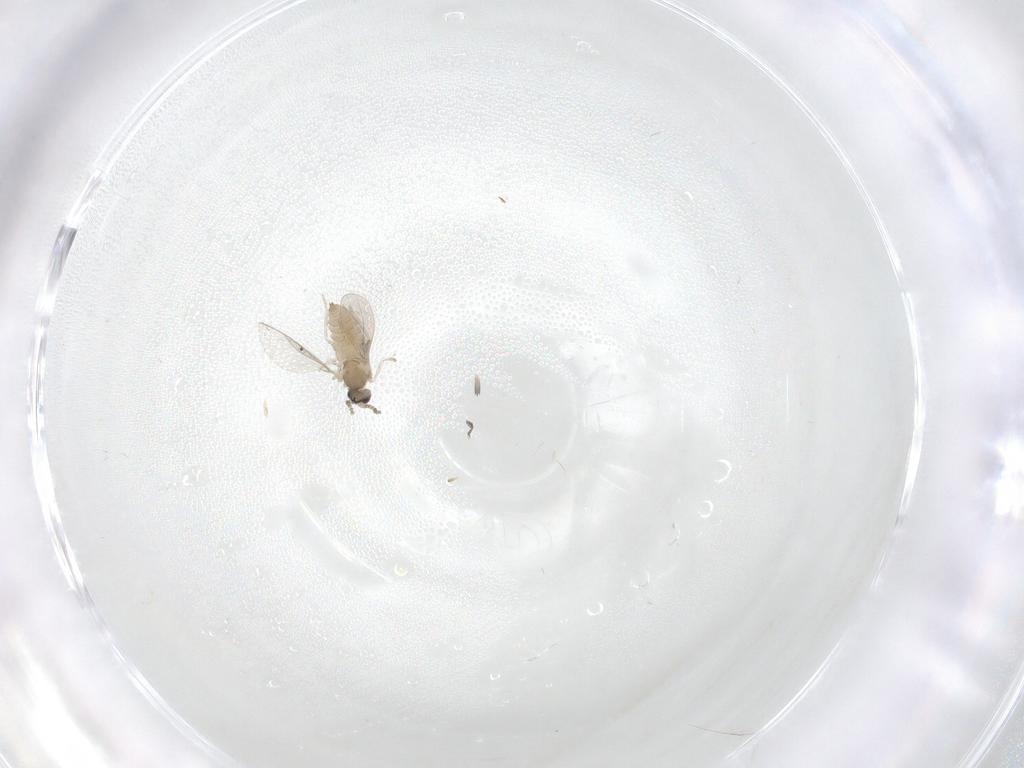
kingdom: Animalia
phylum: Arthropoda
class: Insecta
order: Diptera
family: Cecidomyiidae
